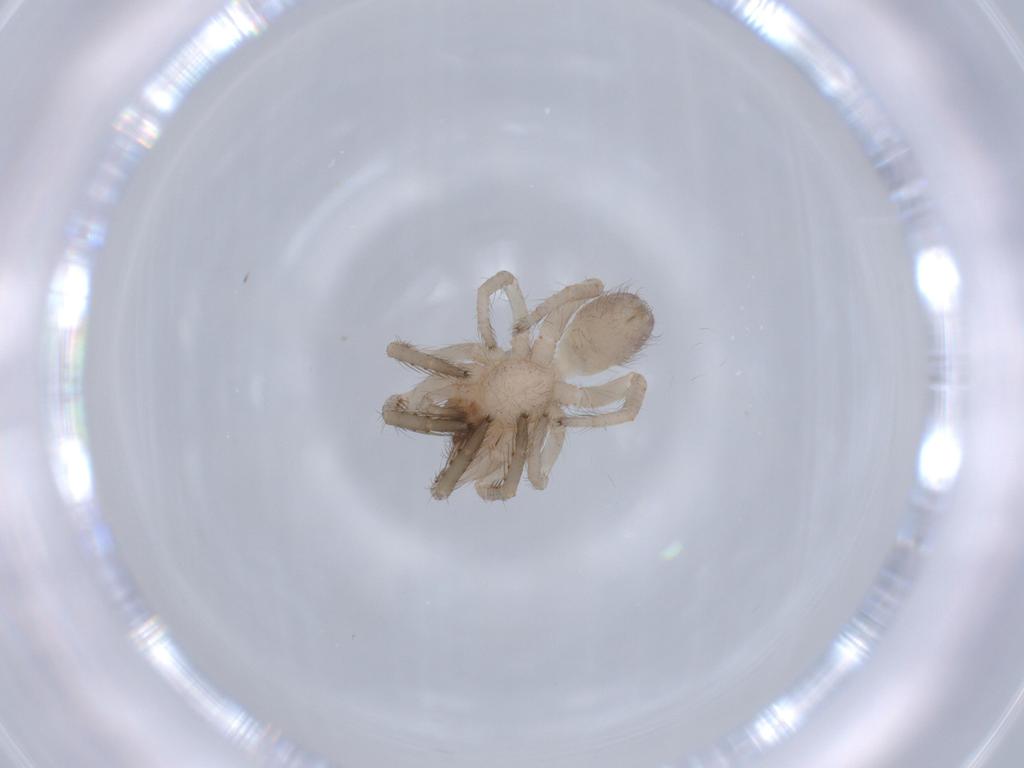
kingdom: Animalia
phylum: Arthropoda
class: Arachnida
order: Araneae
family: Segestriidae
